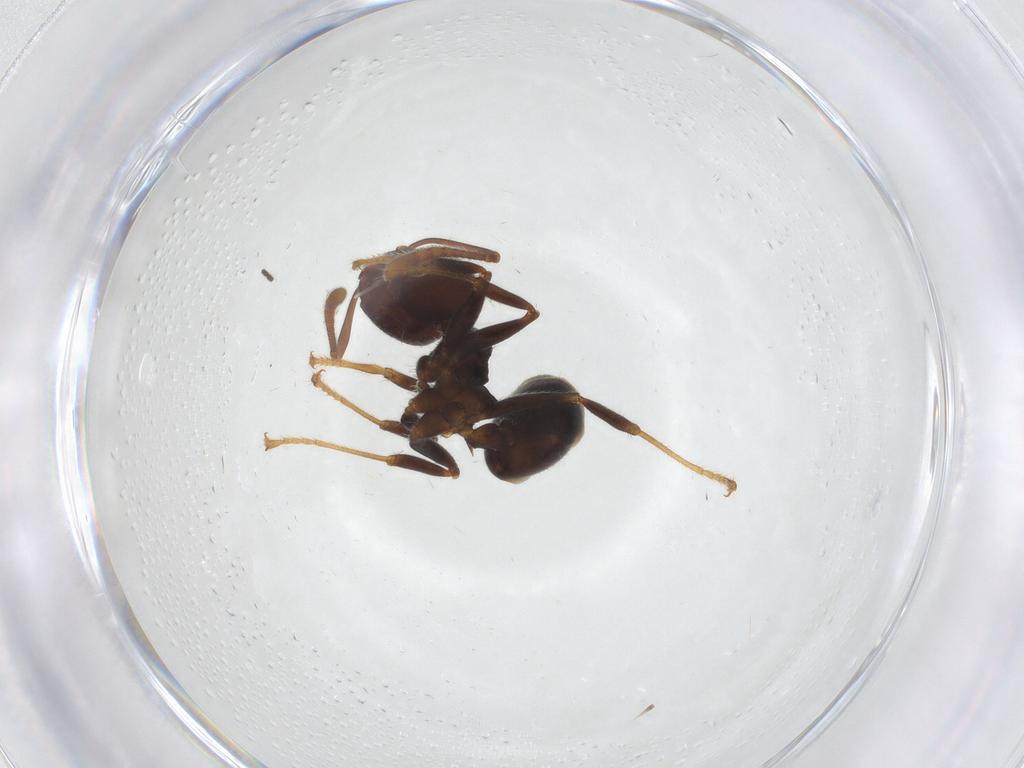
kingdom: Animalia
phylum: Arthropoda
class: Insecta
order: Hymenoptera
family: Formicidae
